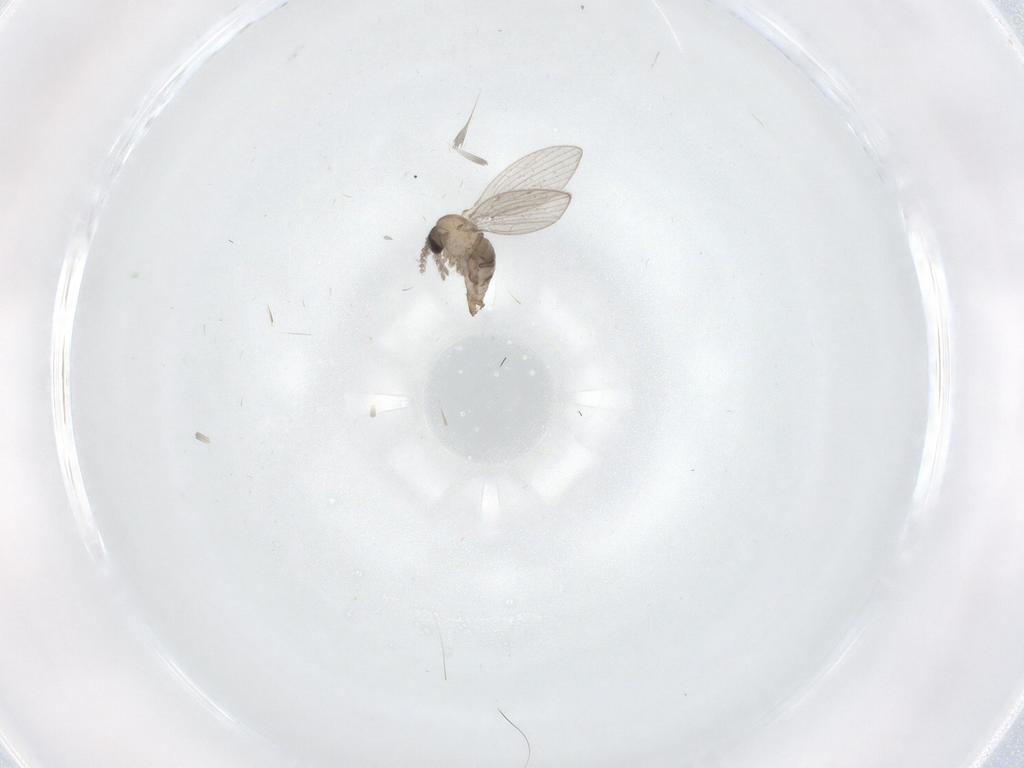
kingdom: Animalia
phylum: Arthropoda
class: Insecta
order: Diptera
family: Psychodidae
